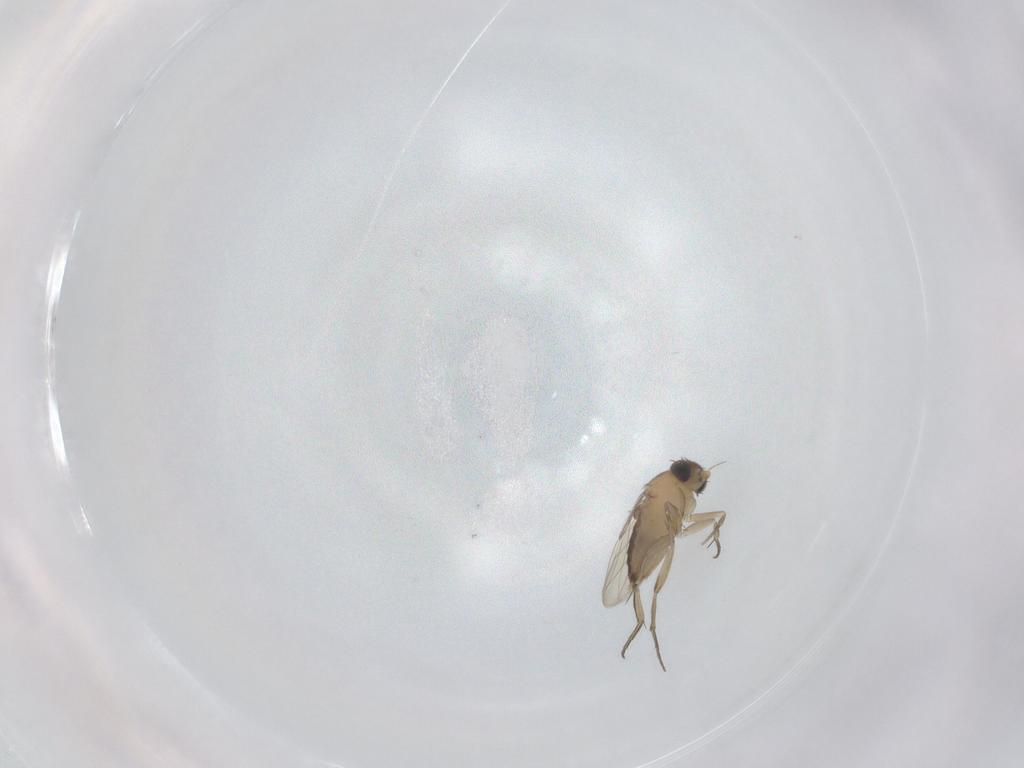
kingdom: Animalia
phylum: Arthropoda
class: Insecta
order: Diptera
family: Phoridae
